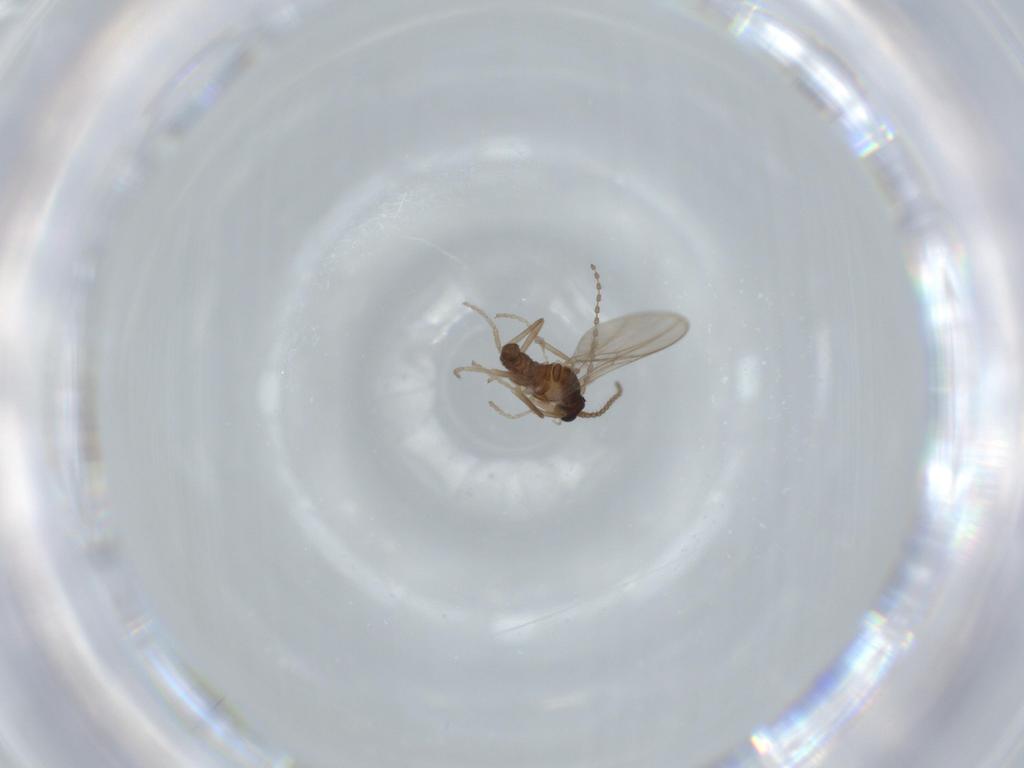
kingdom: Animalia
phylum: Arthropoda
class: Insecta
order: Diptera
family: Cecidomyiidae
